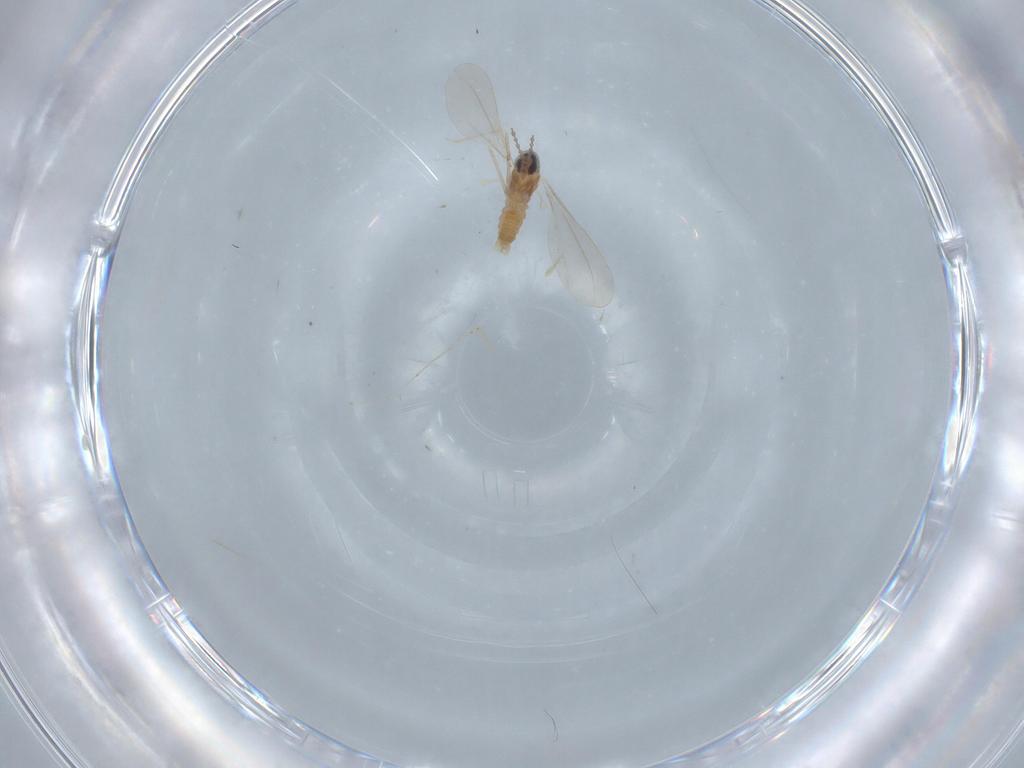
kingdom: Animalia
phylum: Arthropoda
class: Insecta
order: Diptera
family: Cecidomyiidae
